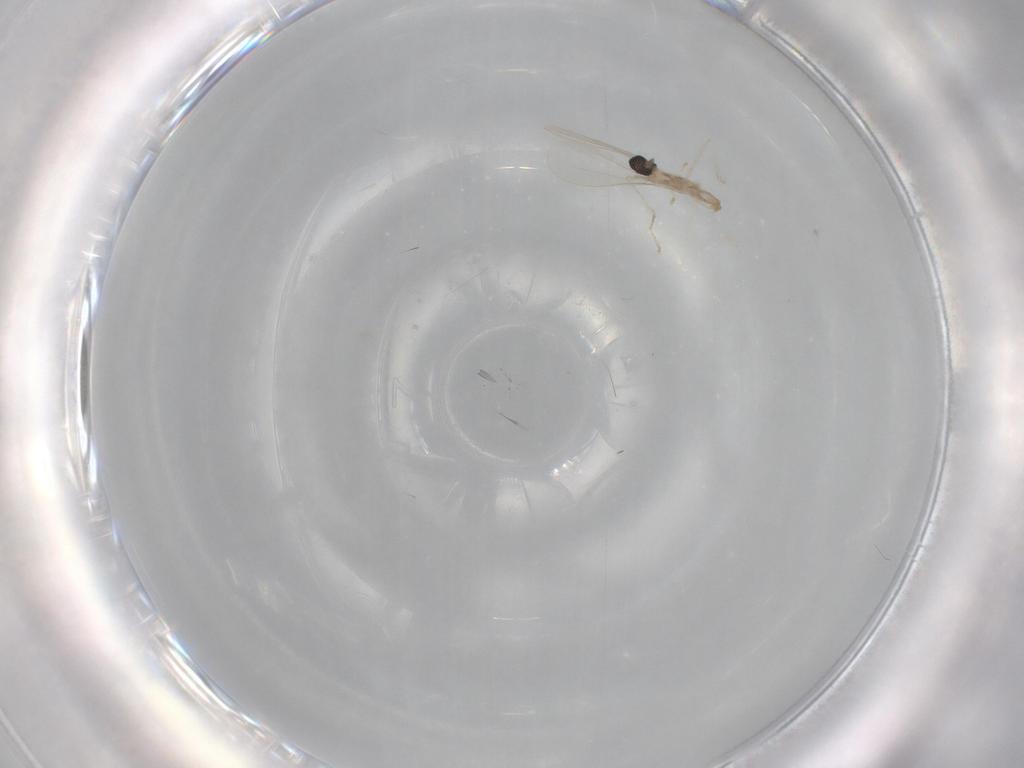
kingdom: Animalia
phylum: Arthropoda
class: Insecta
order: Diptera
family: Cecidomyiidae
